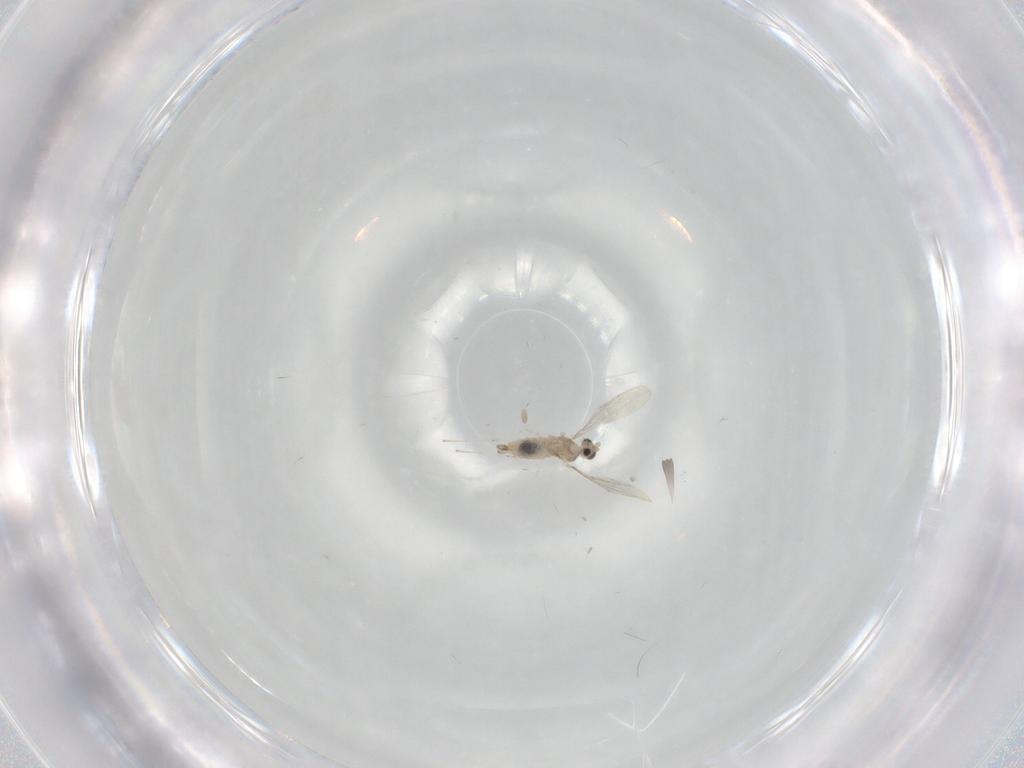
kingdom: Animalia
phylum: Arthropoda
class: Insecta
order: Diptera
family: Cecidomyiidae
